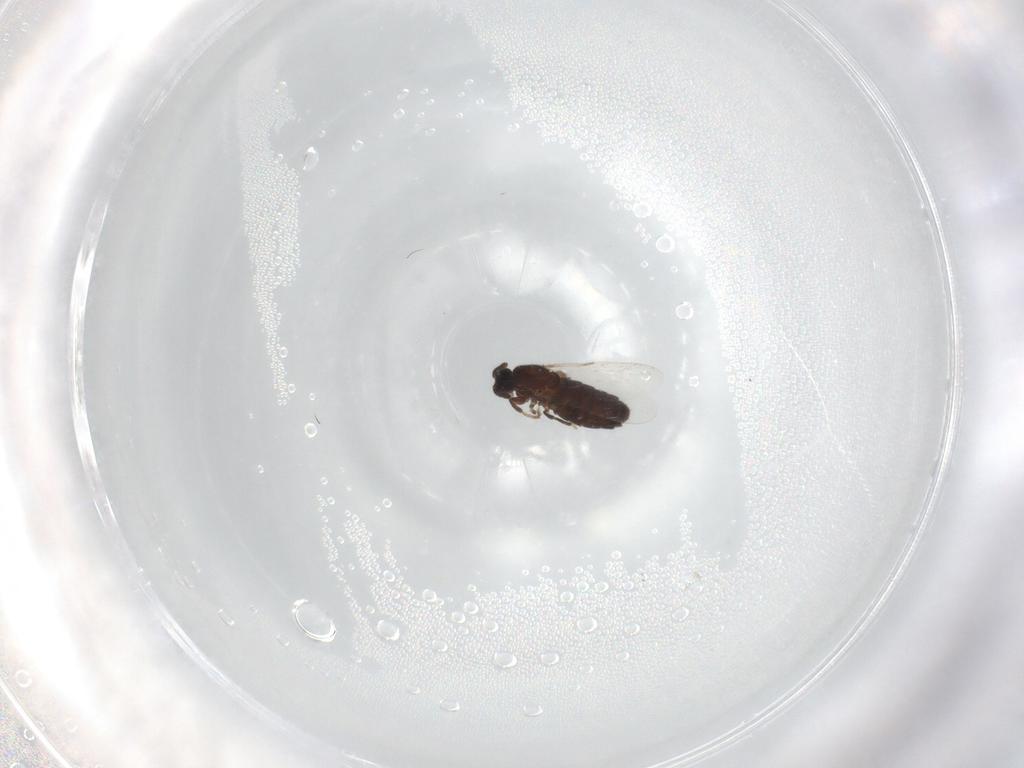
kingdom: Animalia
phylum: Arthropoda
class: Insecta
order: Diptera
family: Scatopsidae
